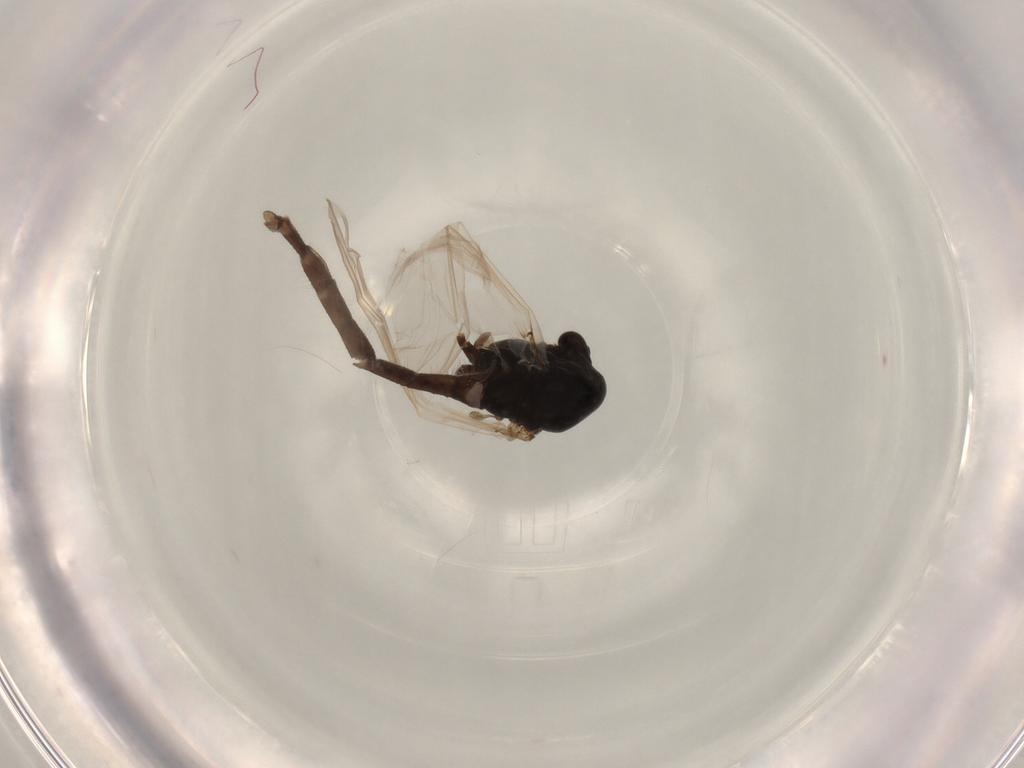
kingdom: Animalia
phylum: Arthropoda
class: Insecta
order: Diptera
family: Chironomidae
